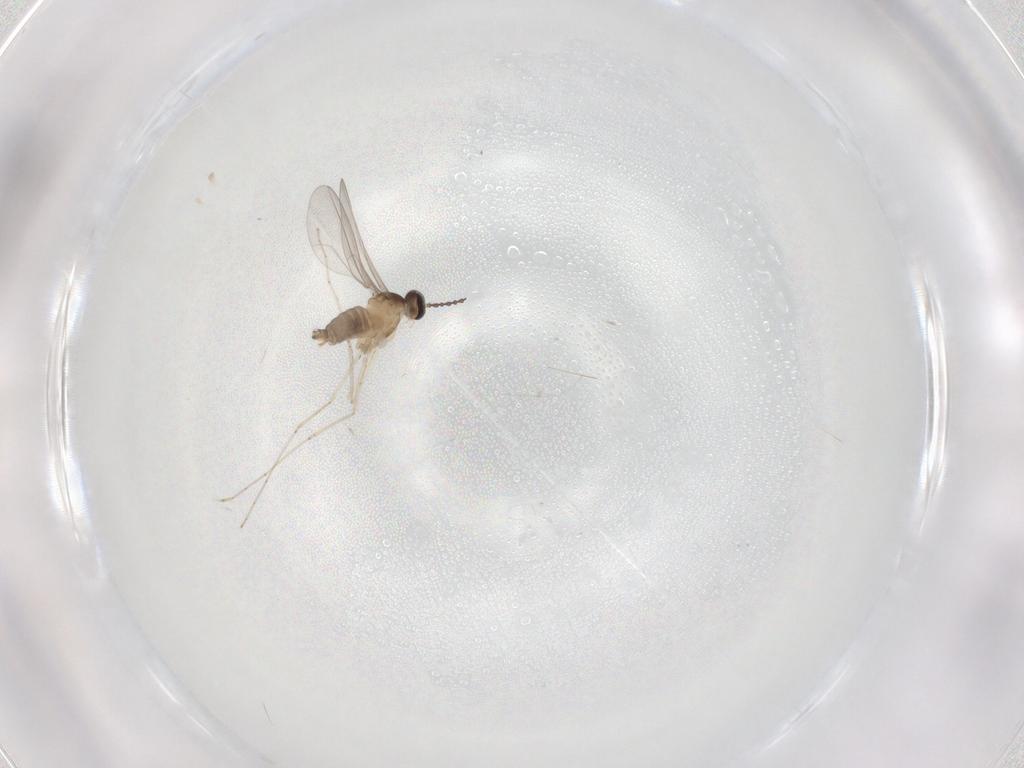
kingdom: Animalia
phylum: Arthropoda
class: Insecta
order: Diptera
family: Cecidomyiidae
